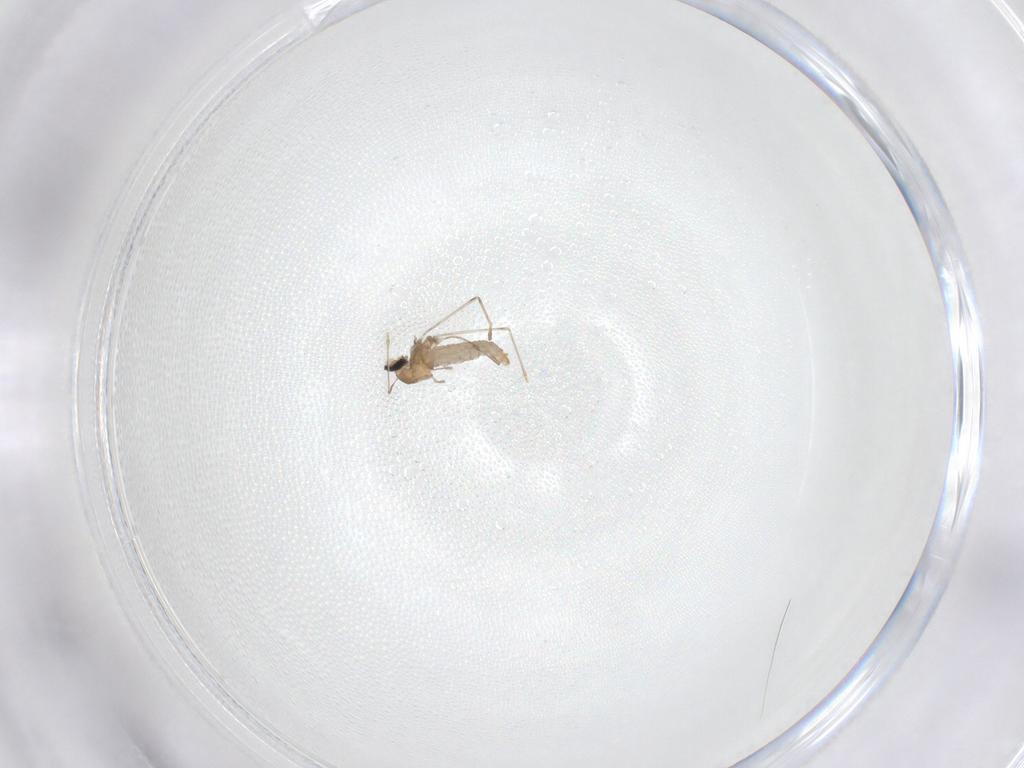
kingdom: Animalia
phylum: Arthropoda
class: Insecta
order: Diptera
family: Cecidomyiidae
